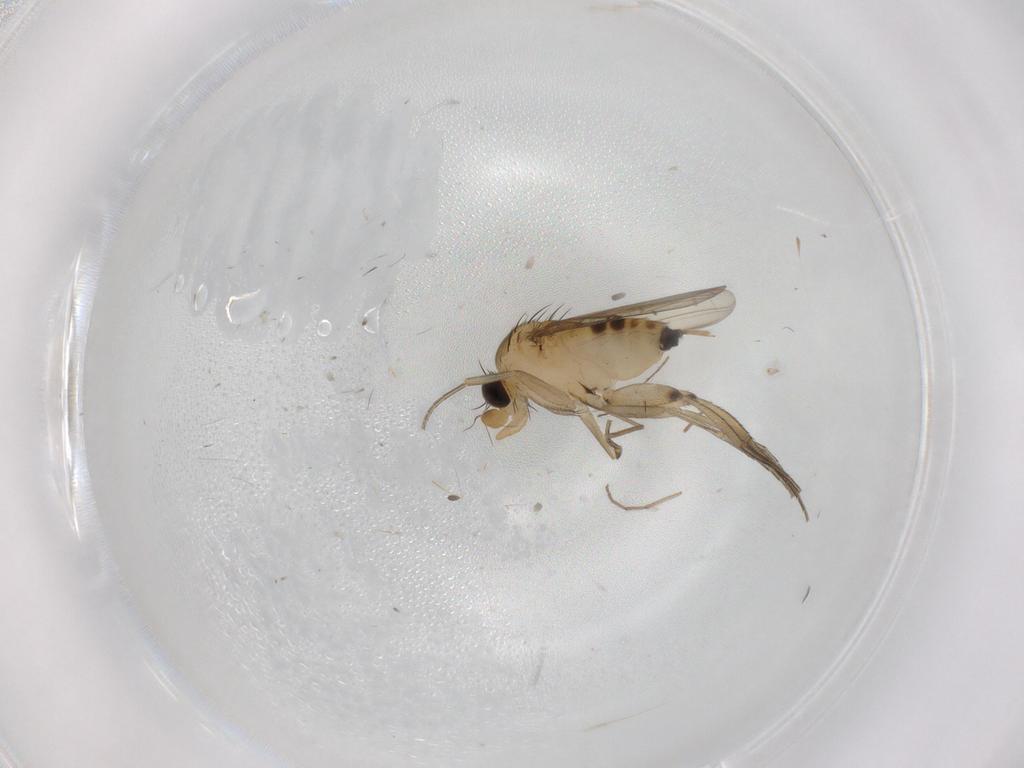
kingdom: Animalia
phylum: Arthropoda
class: Insecta
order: Diptera
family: Phoridae
